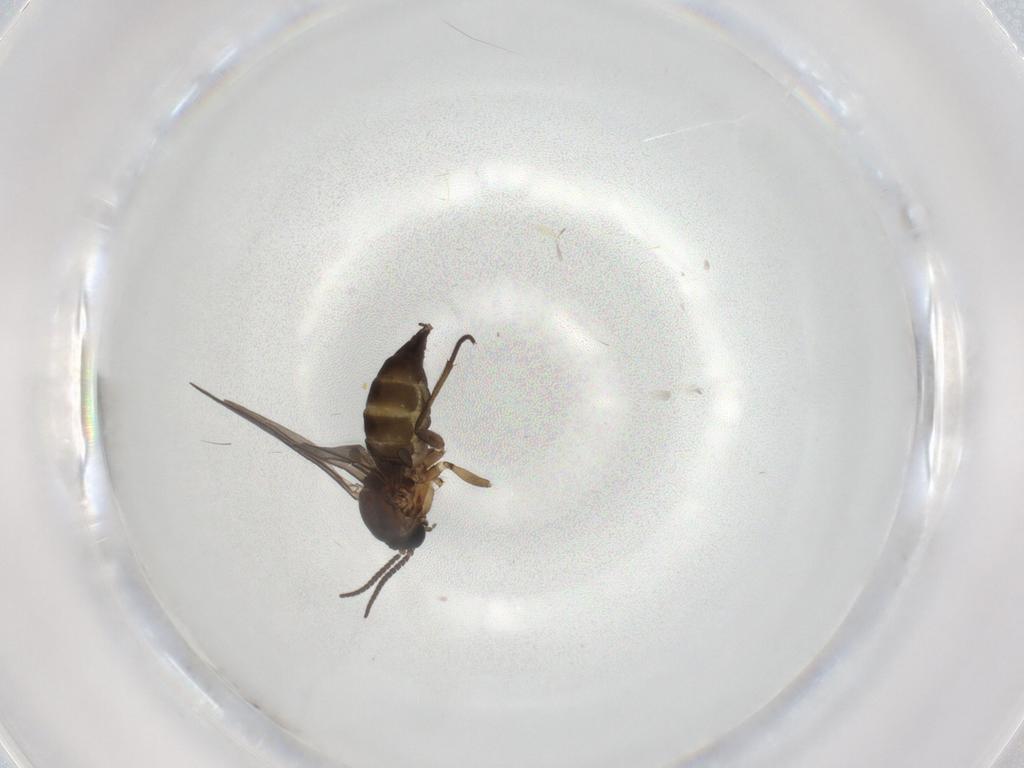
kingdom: Animalia
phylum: Arthropoda
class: Insecta
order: Diptera
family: Sciaridae
